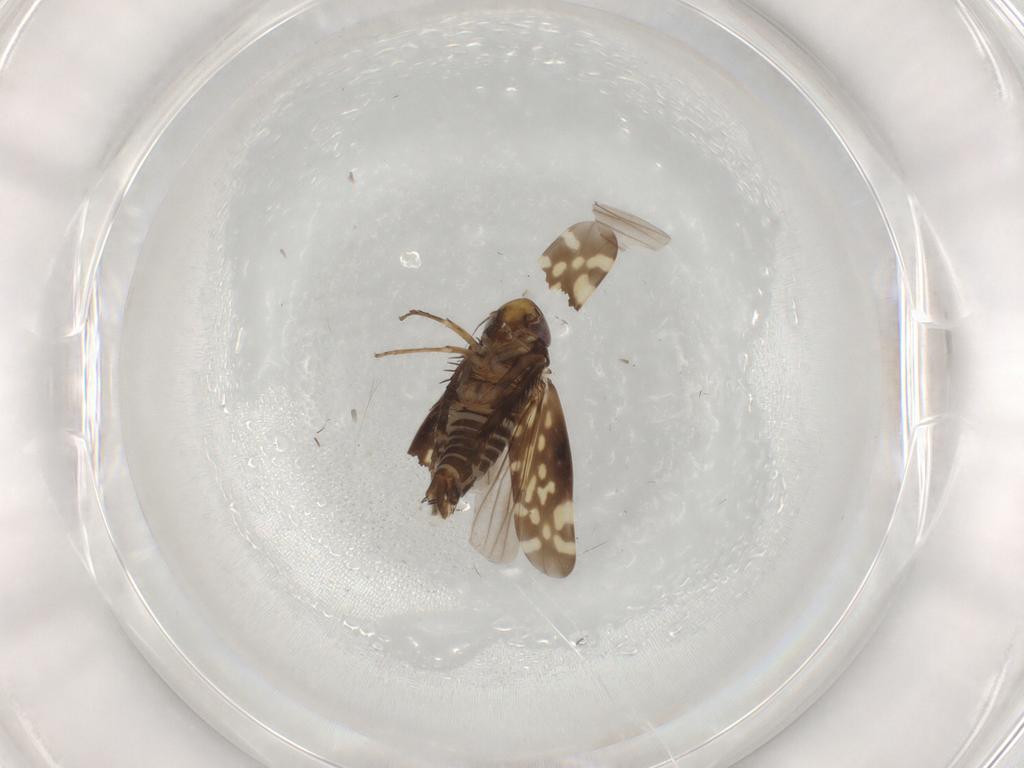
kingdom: Animalia
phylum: Arthropoda
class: Insecta
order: Hemiptera
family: Cicadellidae
